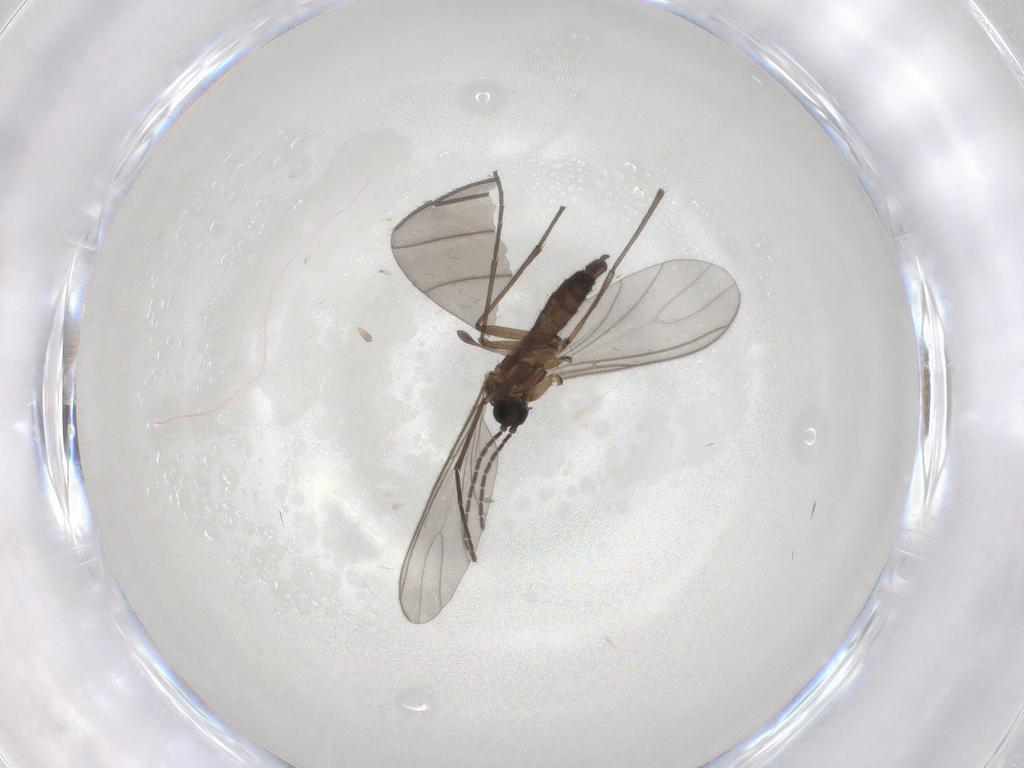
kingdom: Animalia
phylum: Arthropoda
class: Insecta
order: Diptera
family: Sciaridae
